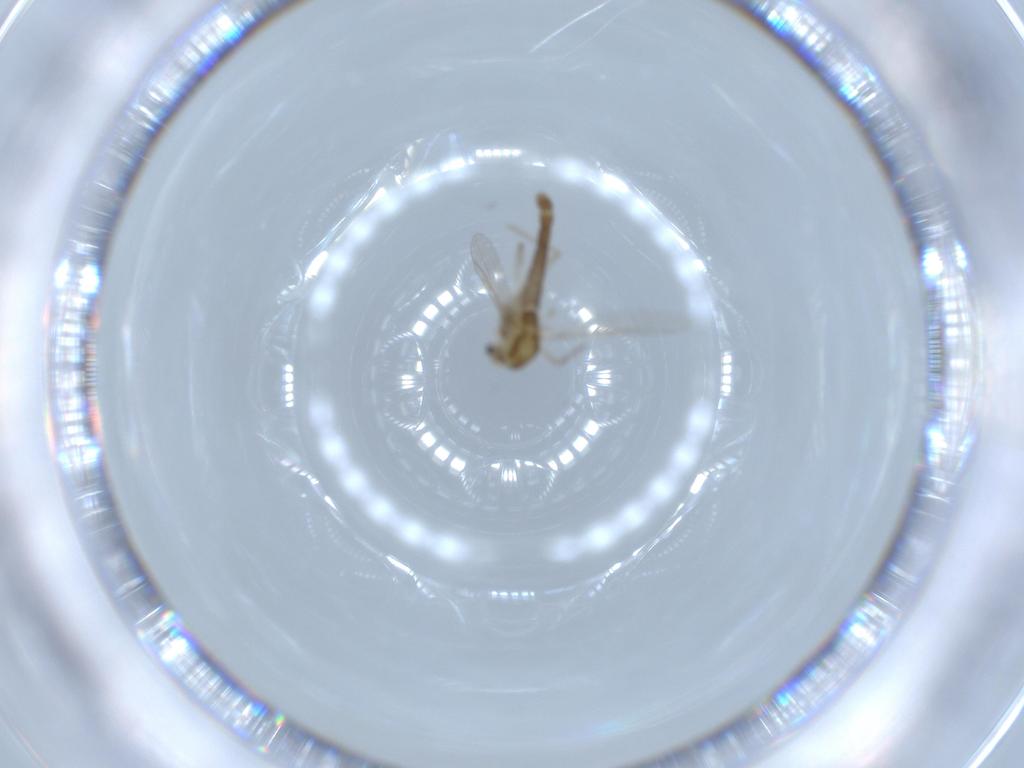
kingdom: Animalia
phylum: Arthropoda
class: Insecta
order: Diptera
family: Chironomidae
